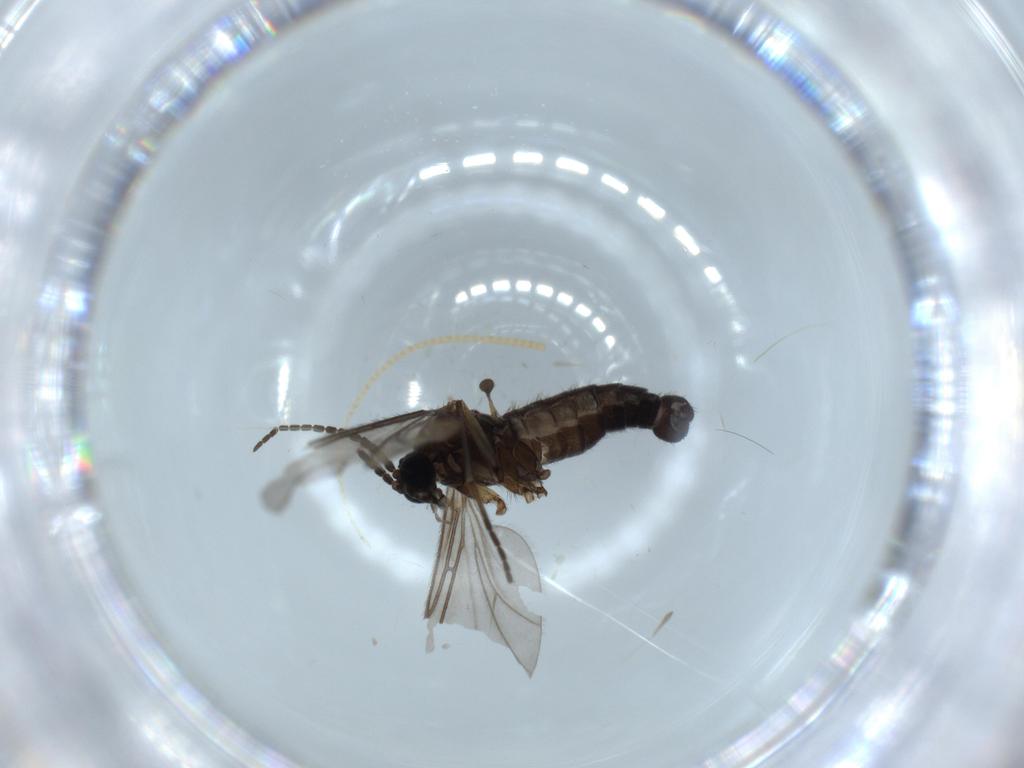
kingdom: Animalia
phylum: Arthropoda
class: Insecta
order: Diptera
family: Sciaridae
